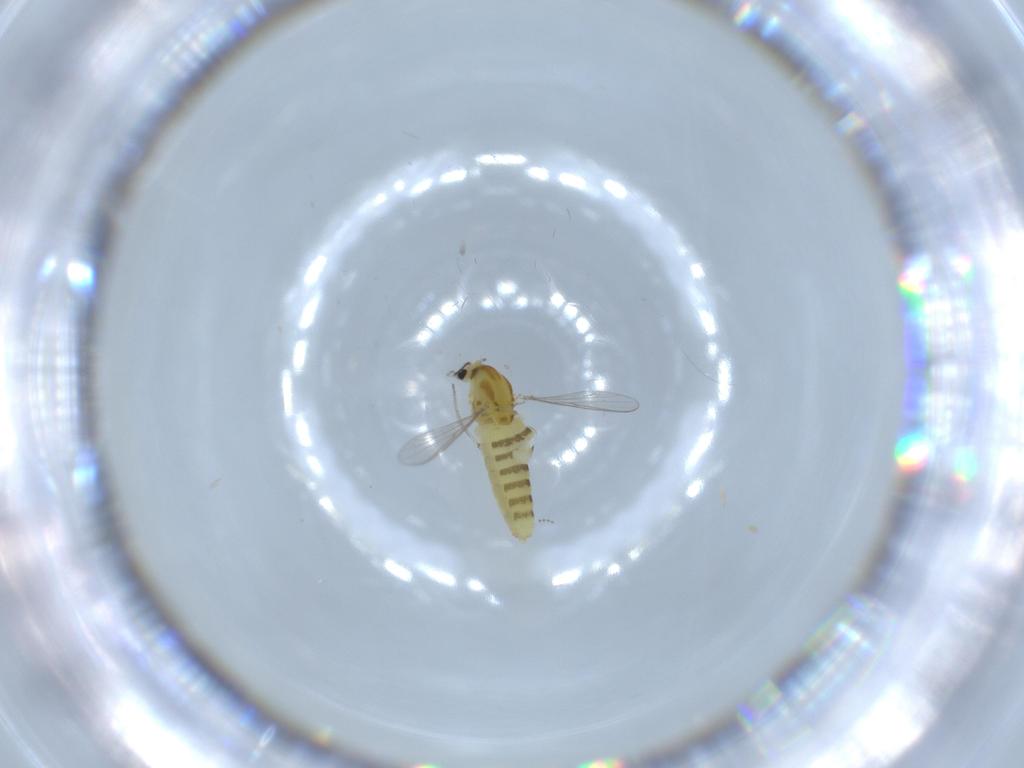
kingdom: Animalia
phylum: Arthropoda
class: Insecta
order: Diptera
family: Chironomidae
